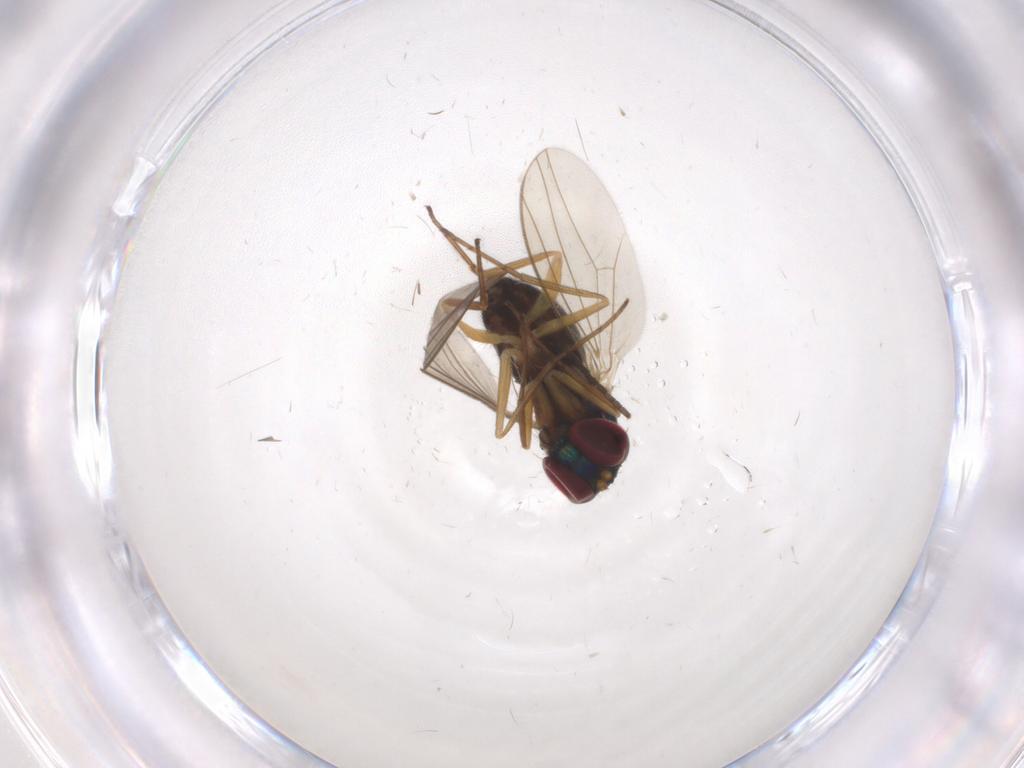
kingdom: Animalia
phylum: Arthropoda
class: Insecta
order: Diptera
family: Psychodidae
